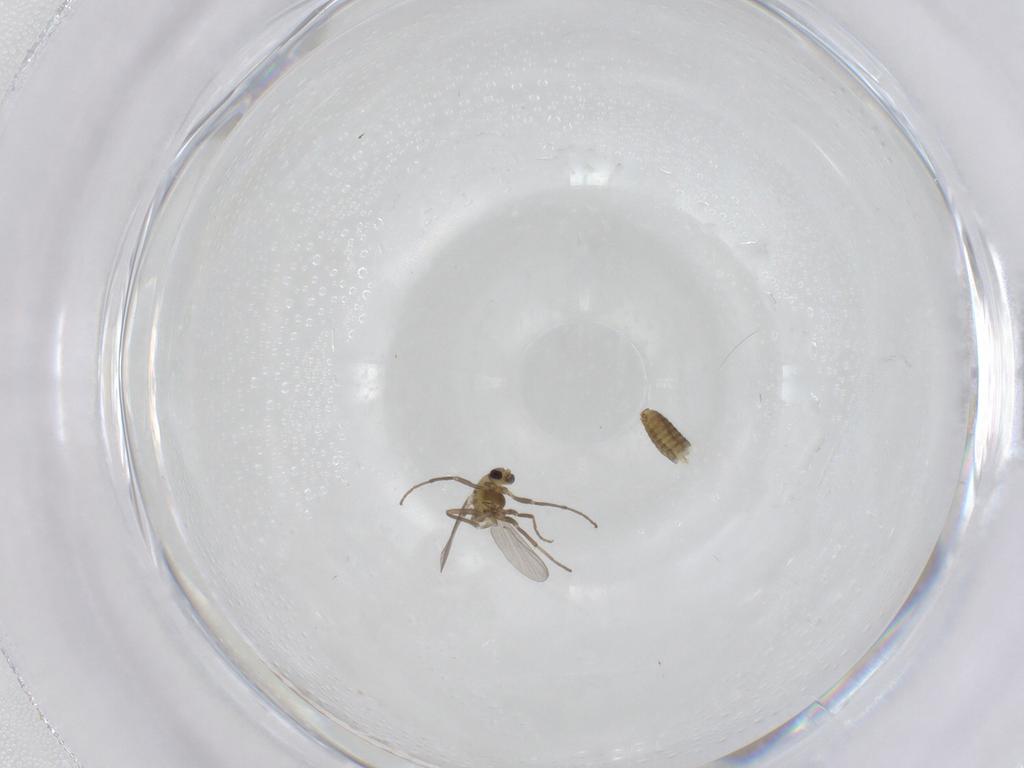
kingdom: Animalia
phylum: Arthropoda
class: Insecta
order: Diptera
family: Chironomidae
